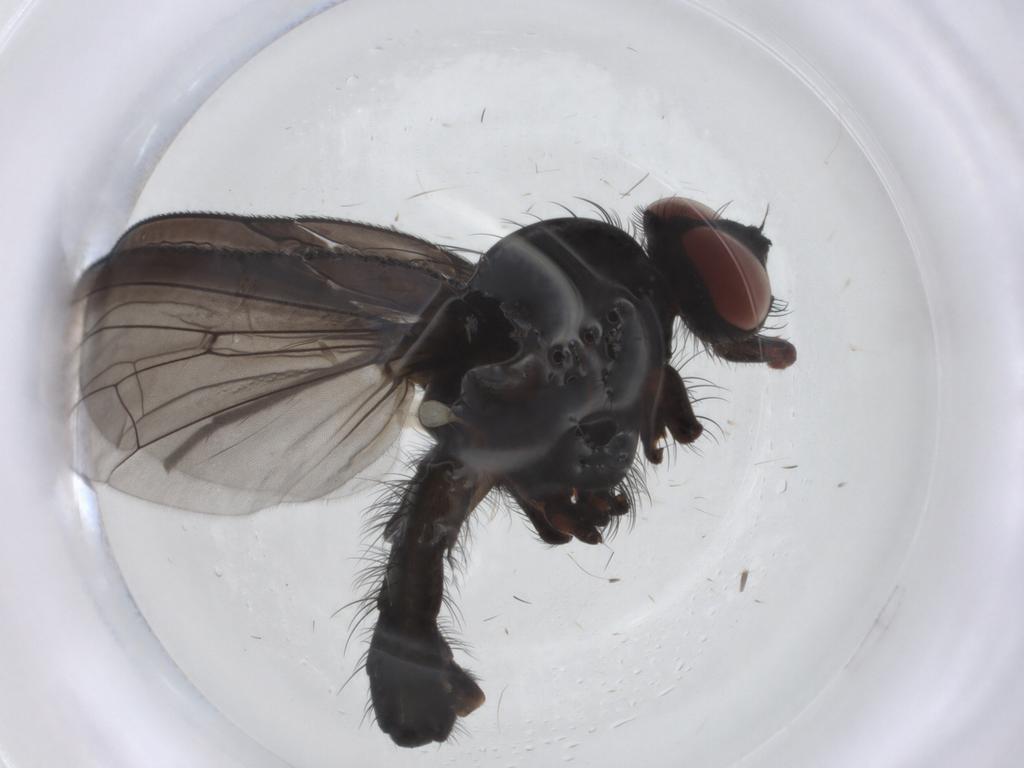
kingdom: Animalia
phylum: Arthropoda
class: Insecta
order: Diptera
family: Anthomyiidae
